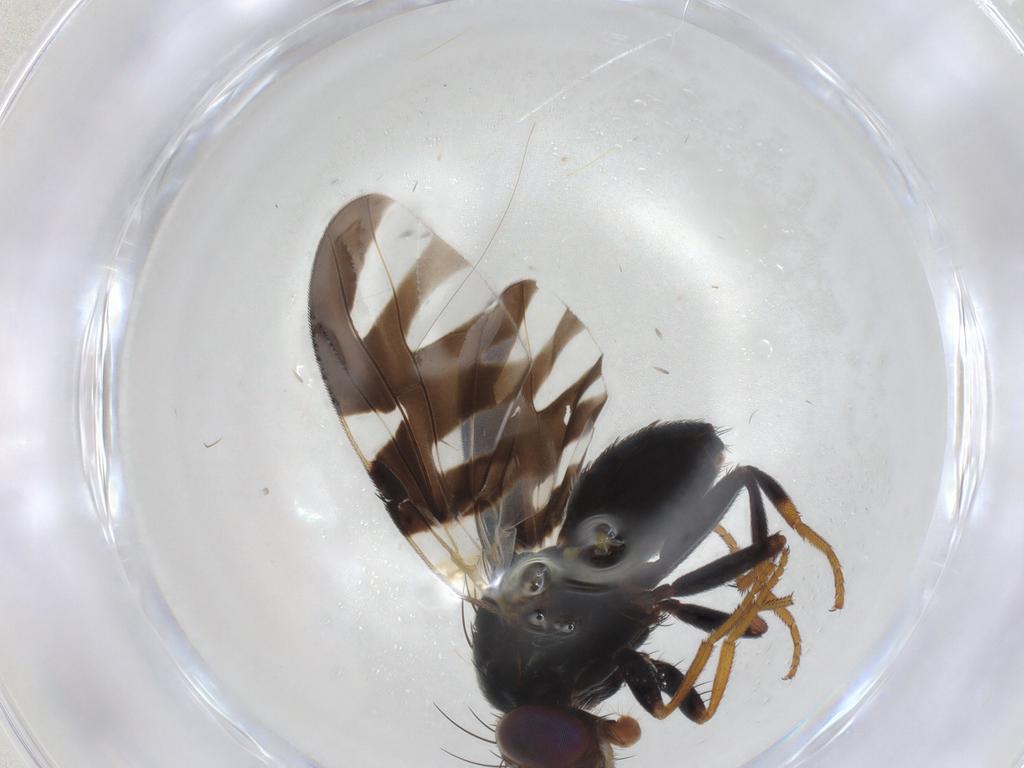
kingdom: Animalia
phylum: Arthropoda
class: Insecta
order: Diptera
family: Tephritidae
